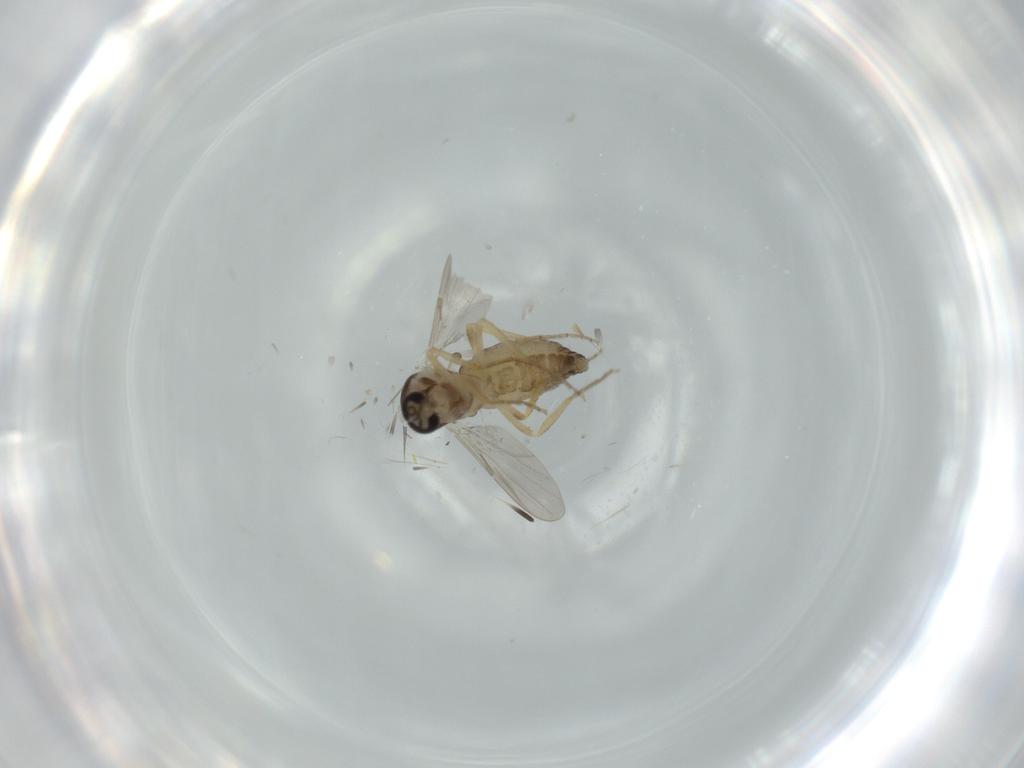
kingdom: Animalia
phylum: Arthropoda
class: Insecta
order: Diptera
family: Ceratopogonidae
